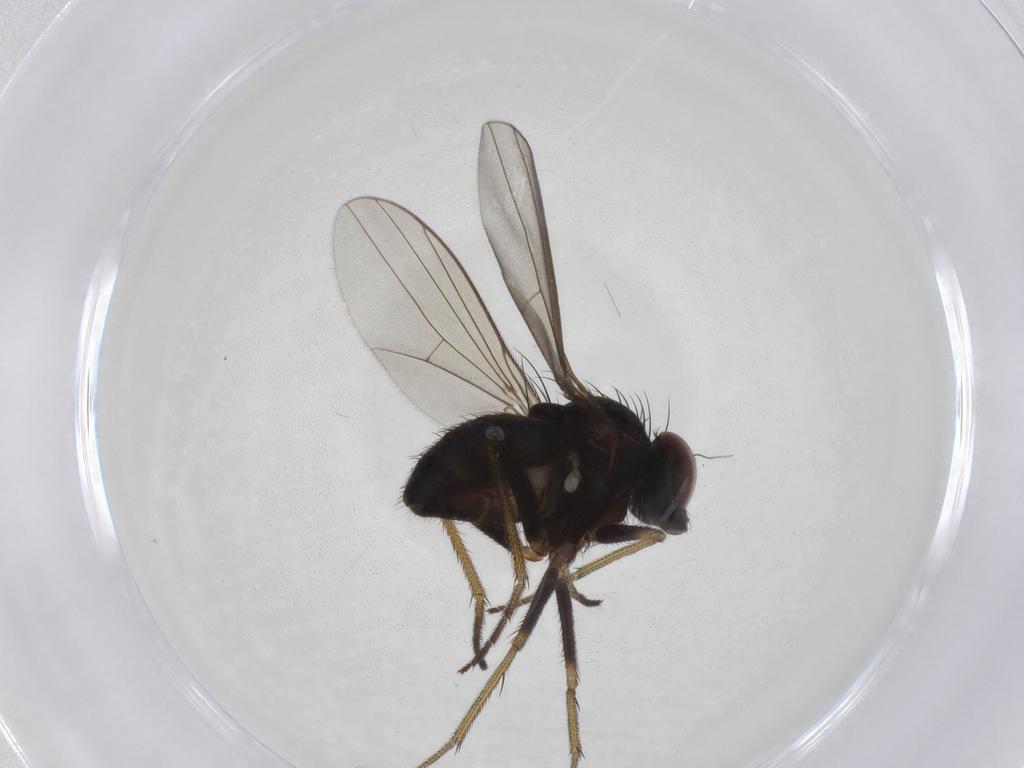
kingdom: Animalia
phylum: Arthropoda
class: Insecta
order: Diptera
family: Dolichopodidae
